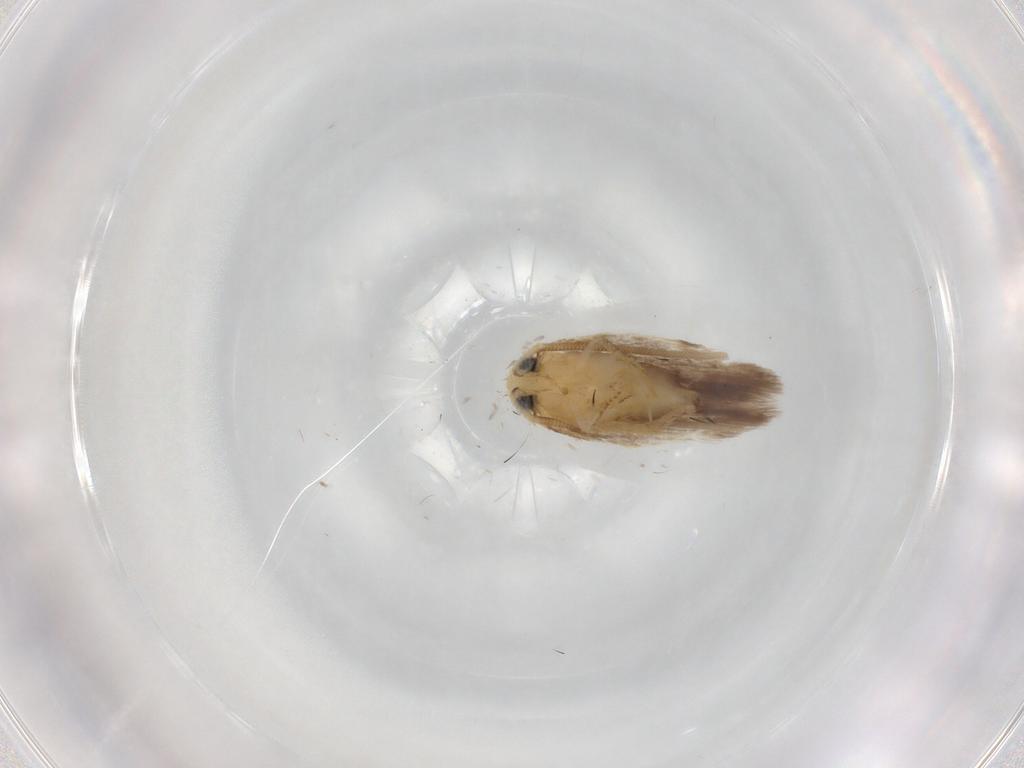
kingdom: Animalia
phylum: Arthropoda
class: Insecta
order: Lepidoptera
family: Opostegidae
